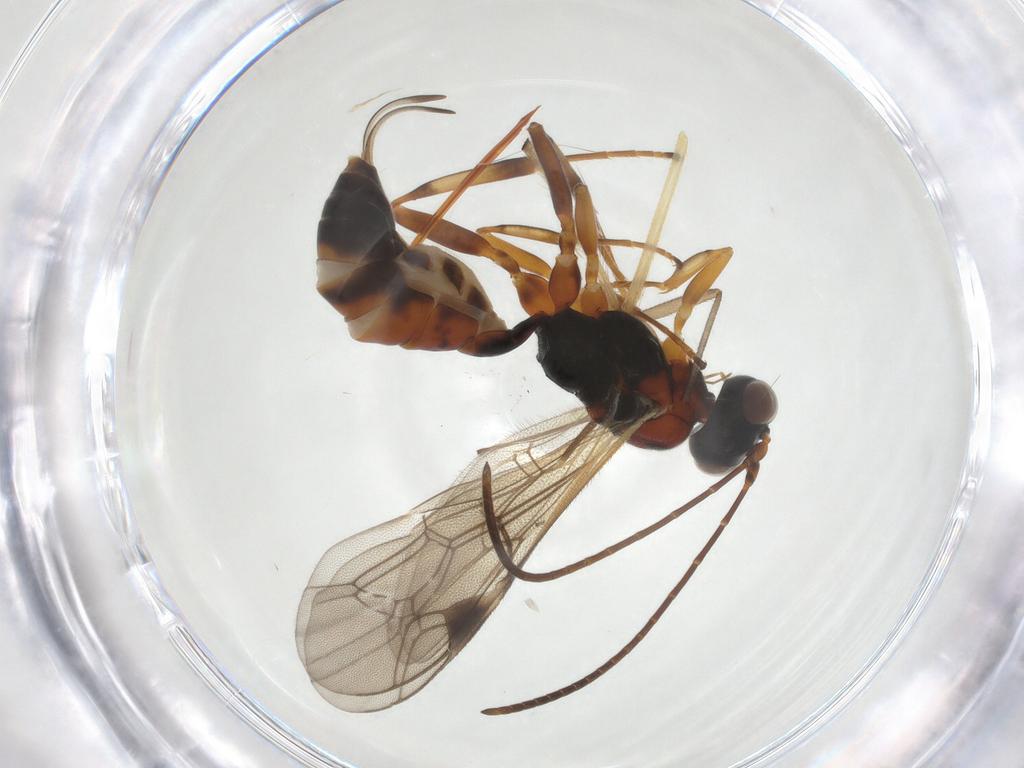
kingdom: Animalia
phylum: Arthropoda
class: Insecta
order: Hymenoptera
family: Ichneumonidae
